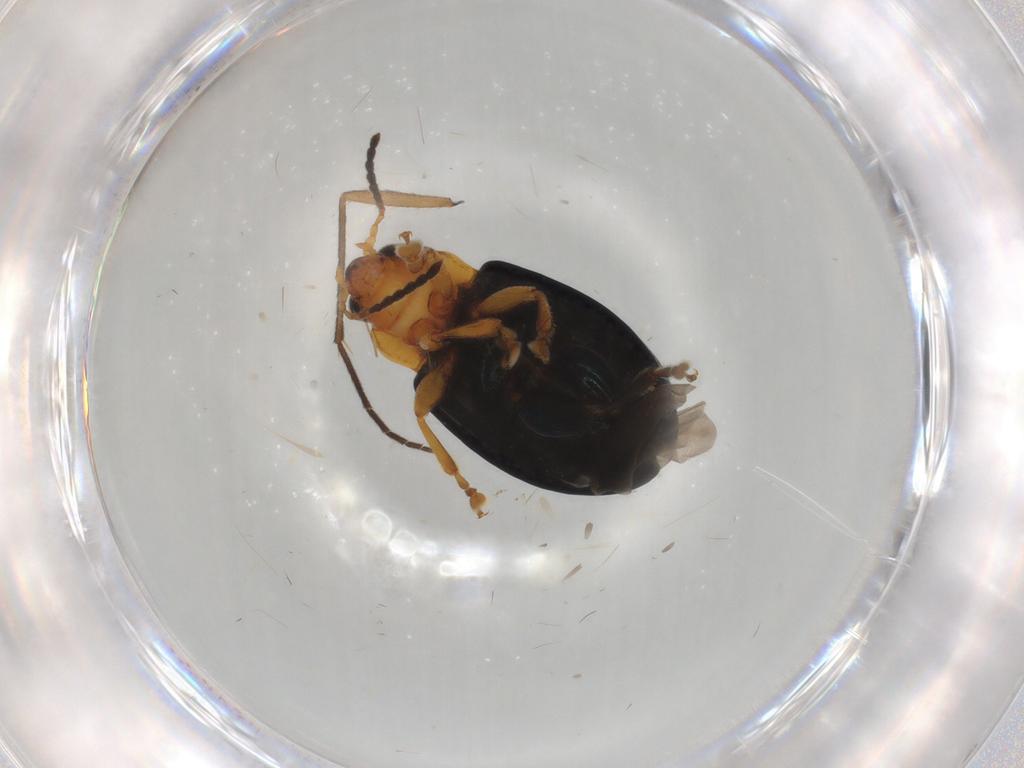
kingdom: Animalia
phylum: Arthropoda
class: Insecta
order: Coleoptera
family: Chrysomelidae
